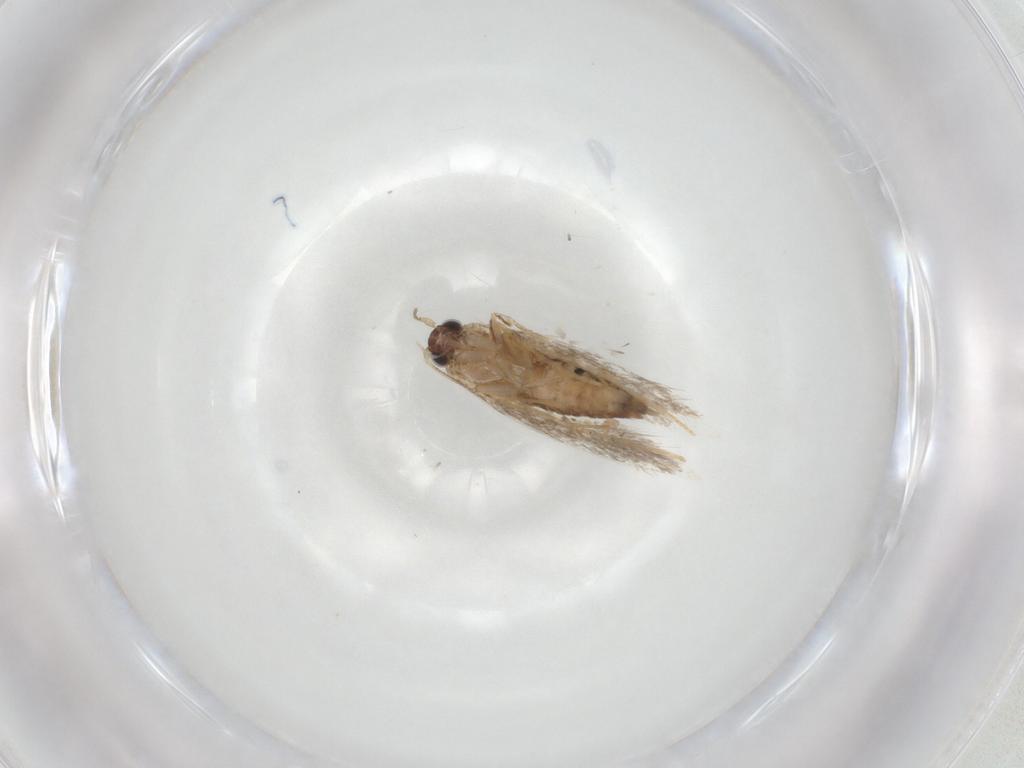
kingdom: Animalia
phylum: Arthropoda
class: Insecta
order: Lepidoptera
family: Tineidae
